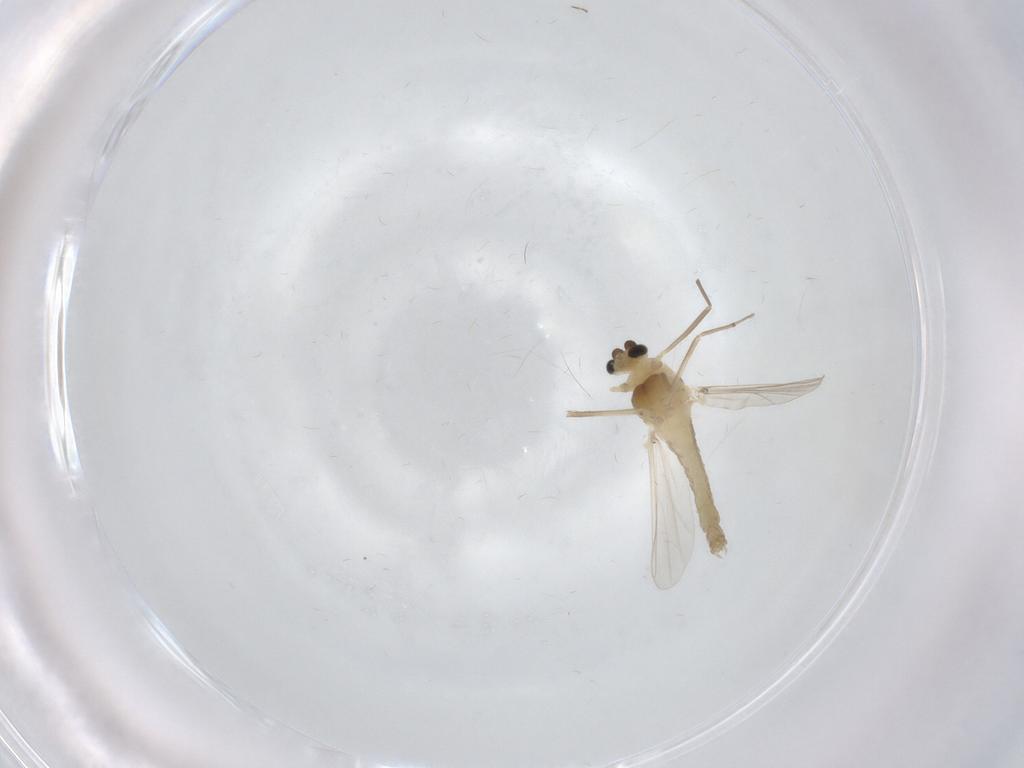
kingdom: Animalia
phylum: Arthropoda
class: Insecta
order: Diptera
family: Chironomidae
